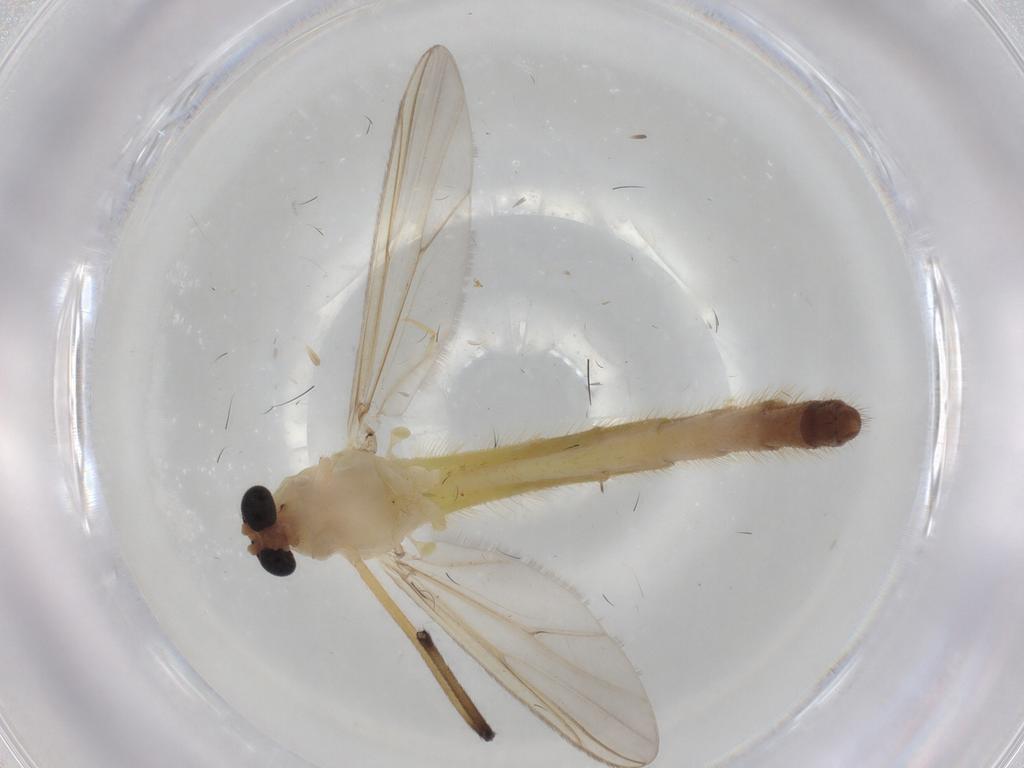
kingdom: Animalia
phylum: Arthropoda
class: Insecta
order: Diptera
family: Chironomidae
